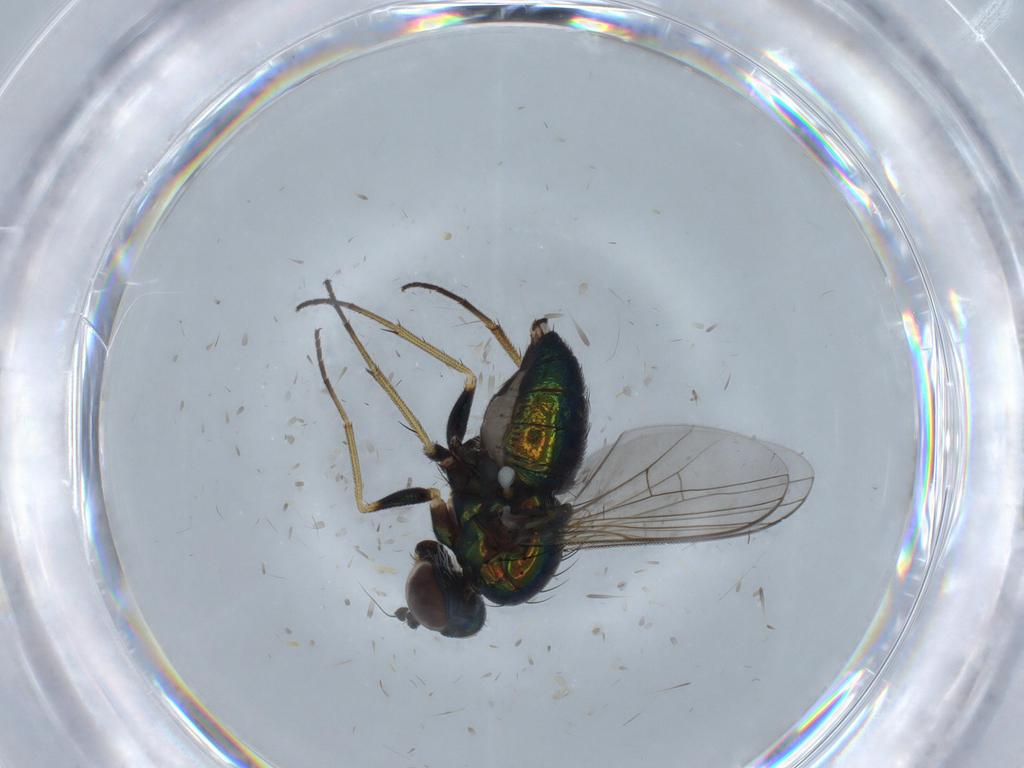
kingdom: Animalia
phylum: Arthropoda
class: Insecta
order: Diptera
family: Dolichopodidae
